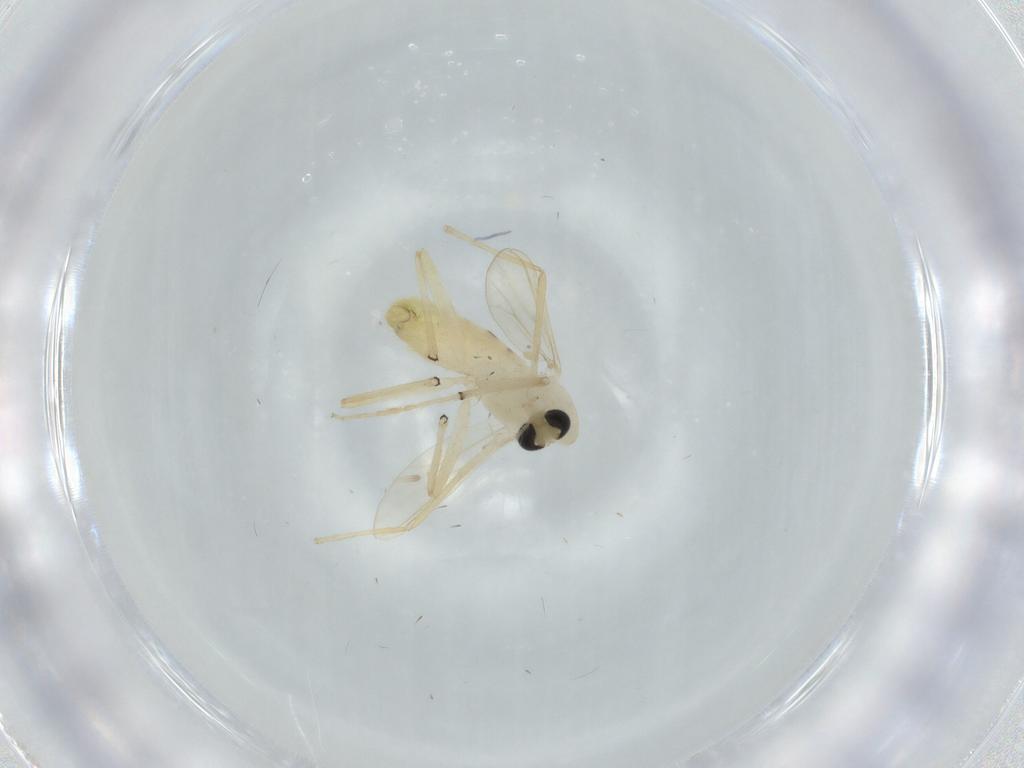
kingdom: Animalia
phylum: Arthropoda
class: Insecta
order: Diptera
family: Chironomidae
